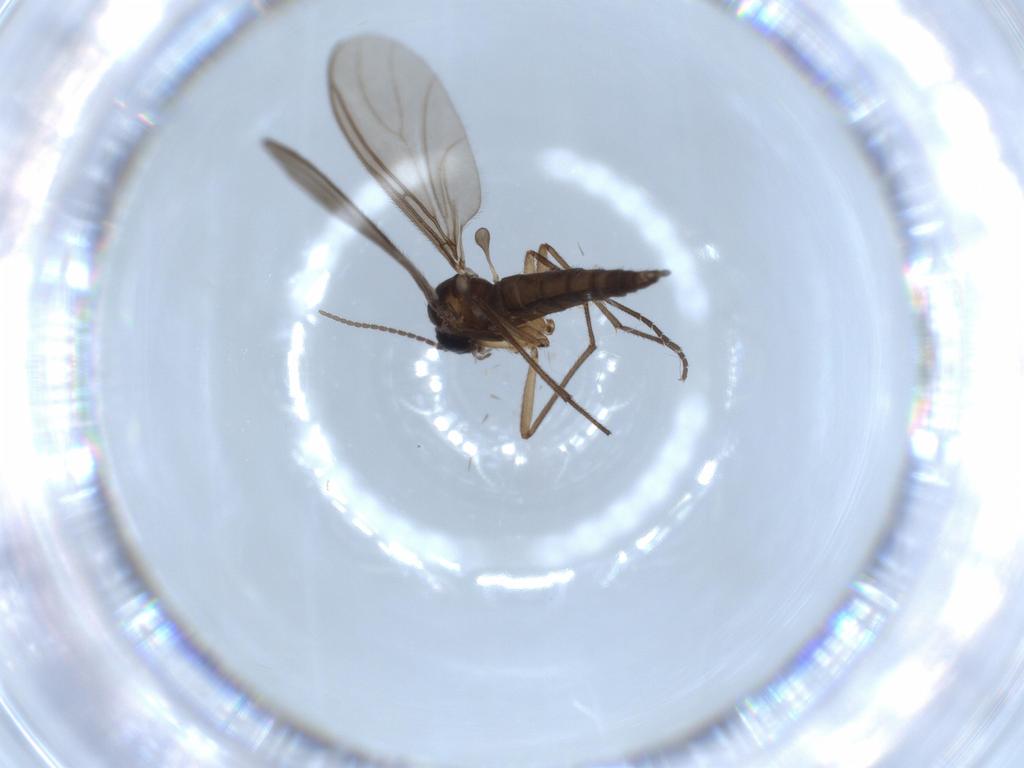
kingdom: Animalia
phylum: Arthropoda
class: Insecta
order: Diptera
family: Sciaridae
